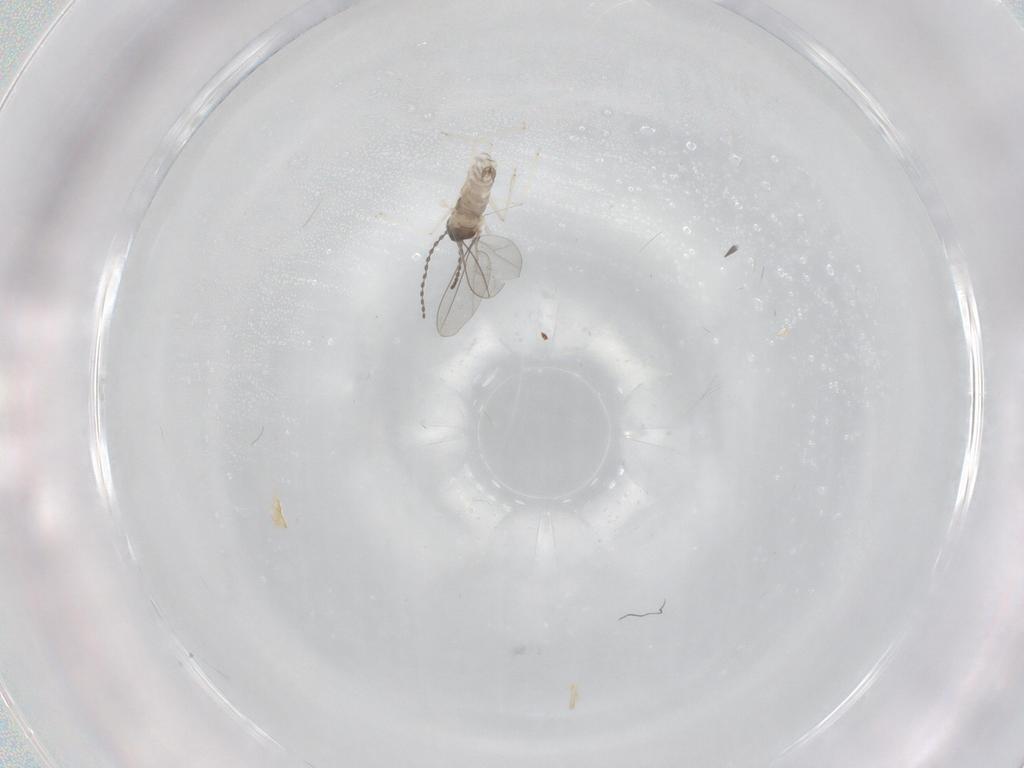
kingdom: Animalia
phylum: Arthropoda
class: Insecta
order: Diptera
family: Cecidomyiidae
